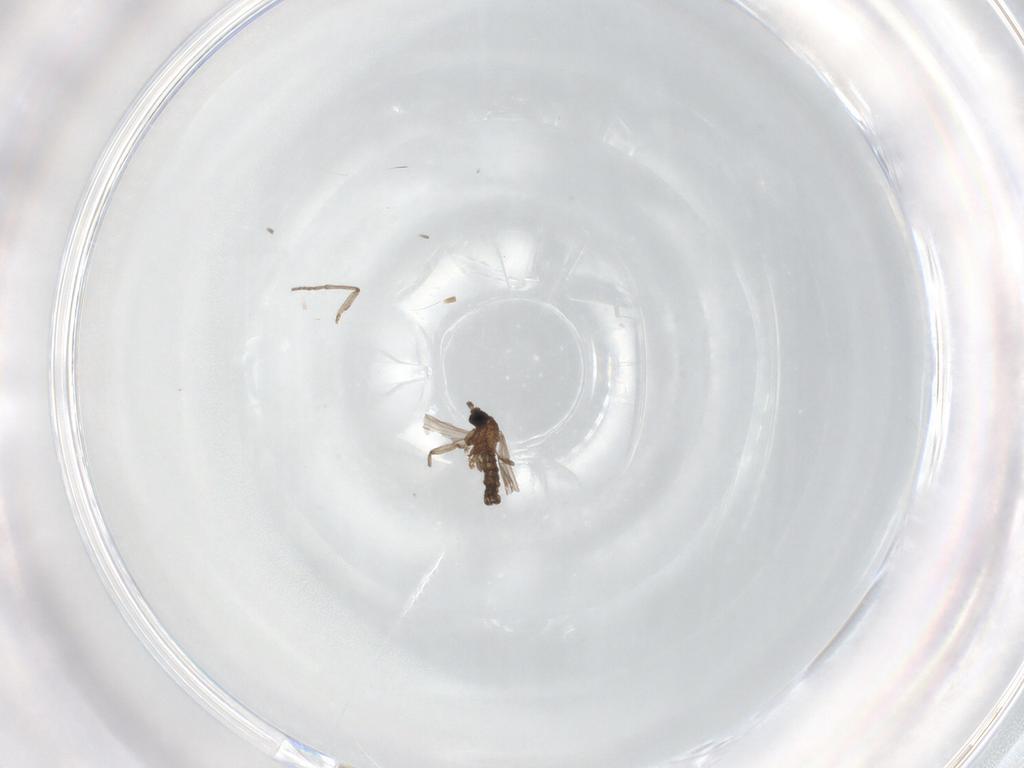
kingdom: Animalia
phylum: Arthropoda
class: Insecta
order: Diptera
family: Sciaridae
